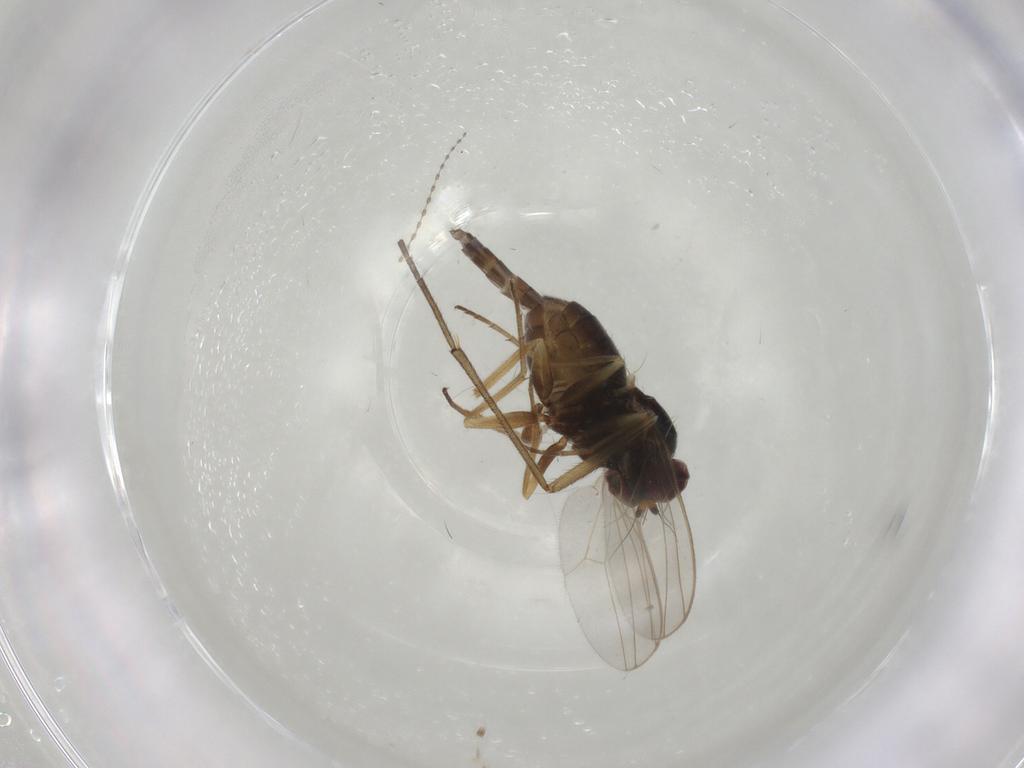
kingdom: Animalia
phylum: Arthropoda
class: Insecta
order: Diptera
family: Dolichopodidae
